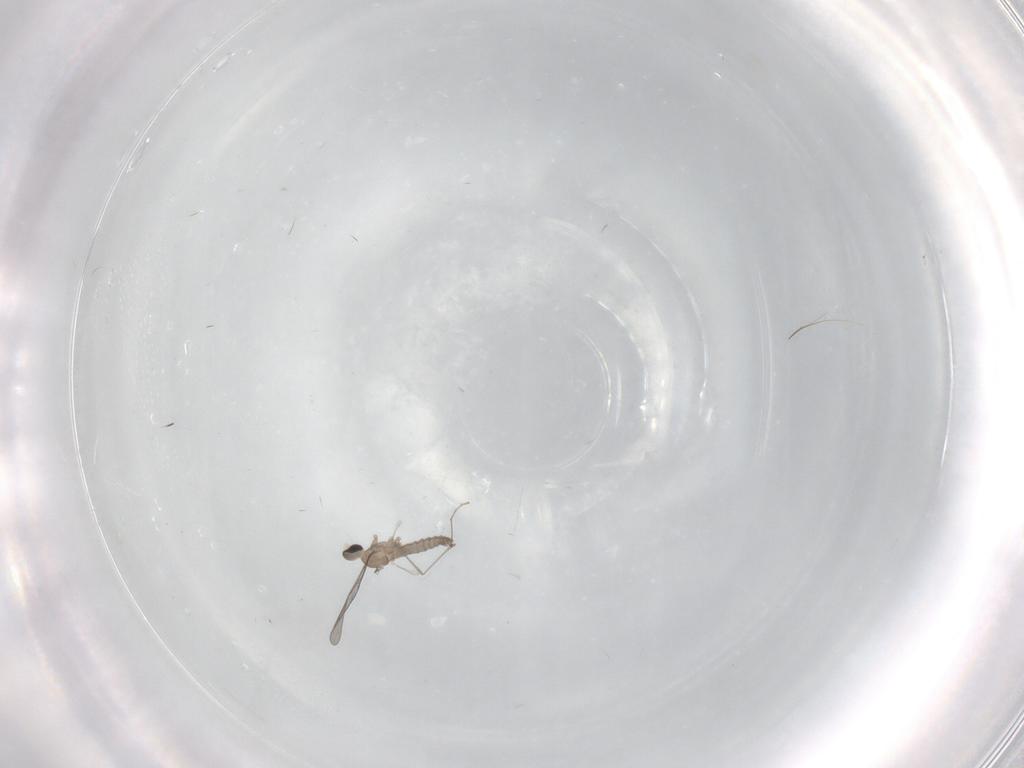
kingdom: Animalia
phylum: Arthropoda
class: Insecta
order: Diptera
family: Cecidomyiidae
